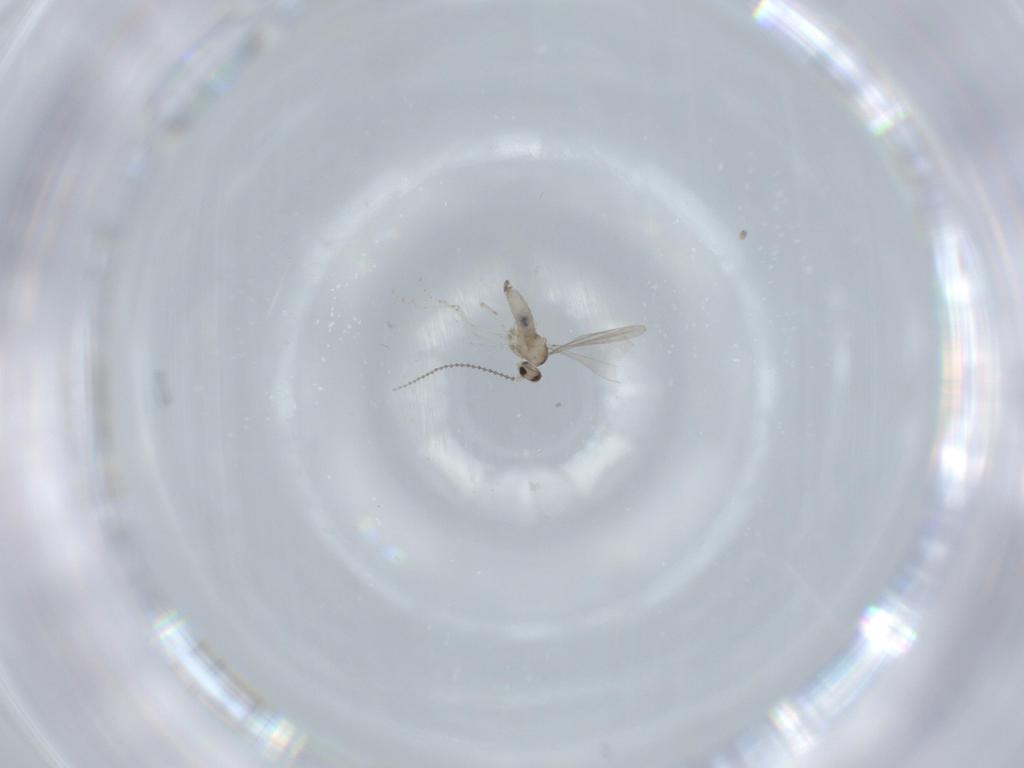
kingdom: Animalia
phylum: Arthropoda
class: Insecta
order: Diptera
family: Cecidomyiidae
